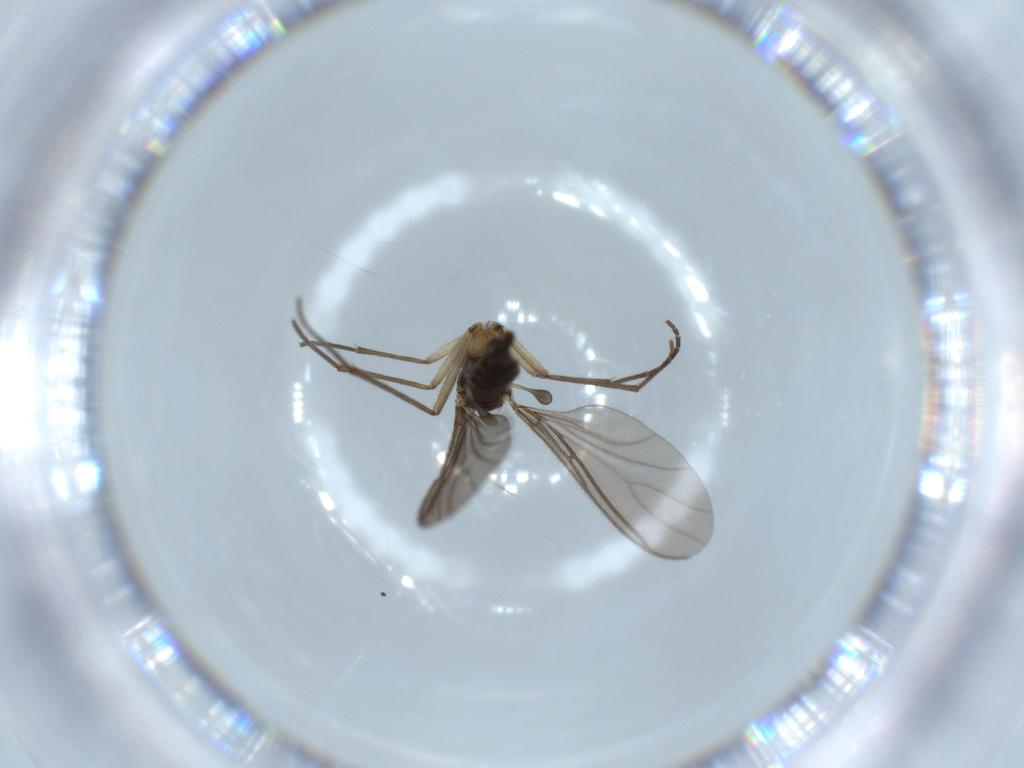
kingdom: Animalia
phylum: Arthropoda
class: Insecta
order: Diptera
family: Sciaridae
